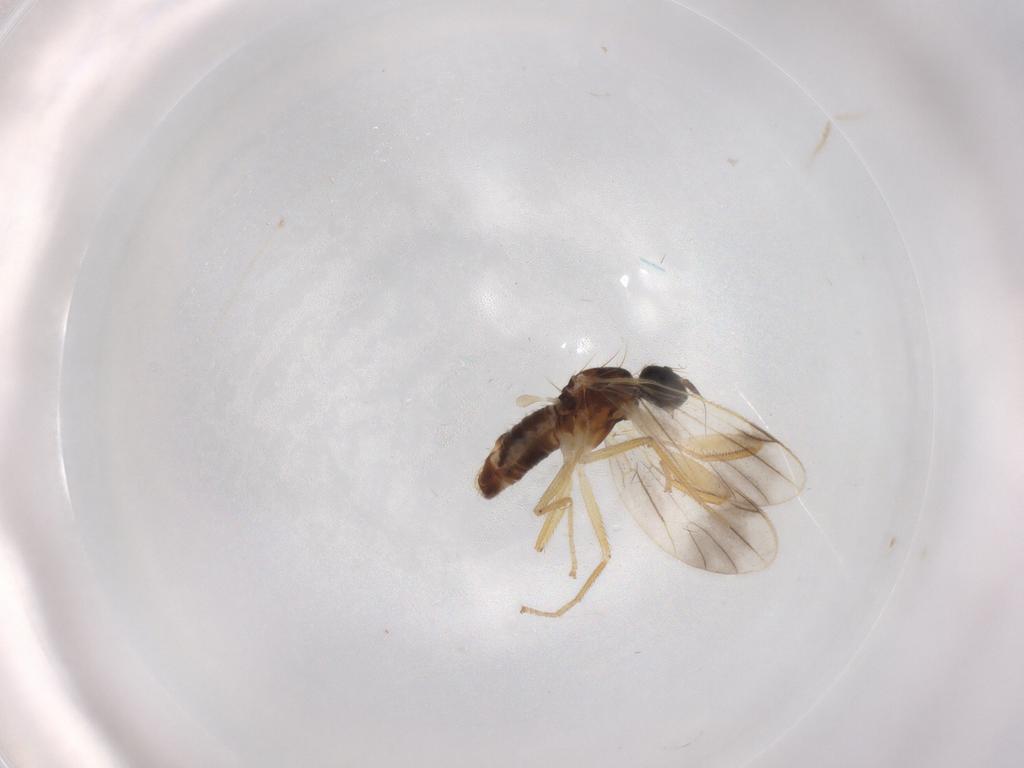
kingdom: Animalia
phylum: Arthropoda
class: Insecta
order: Diptera
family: Empididae
